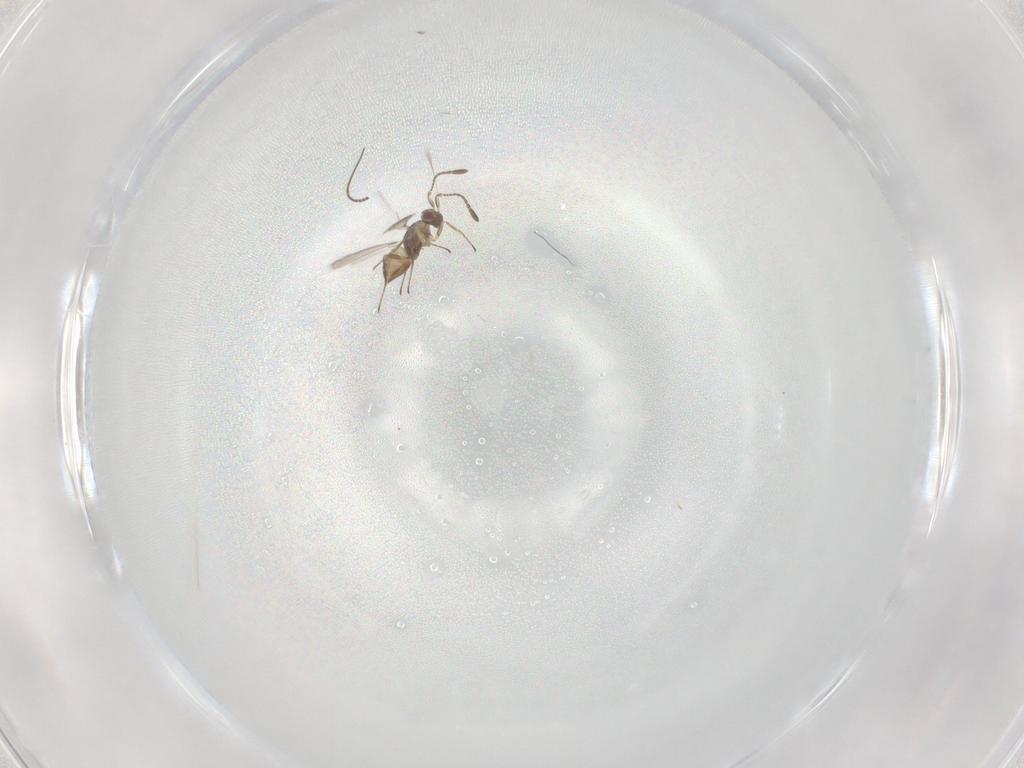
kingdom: Animalia
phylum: Arthropoda
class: Insecta
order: Hymenoptera
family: Mymaridae
